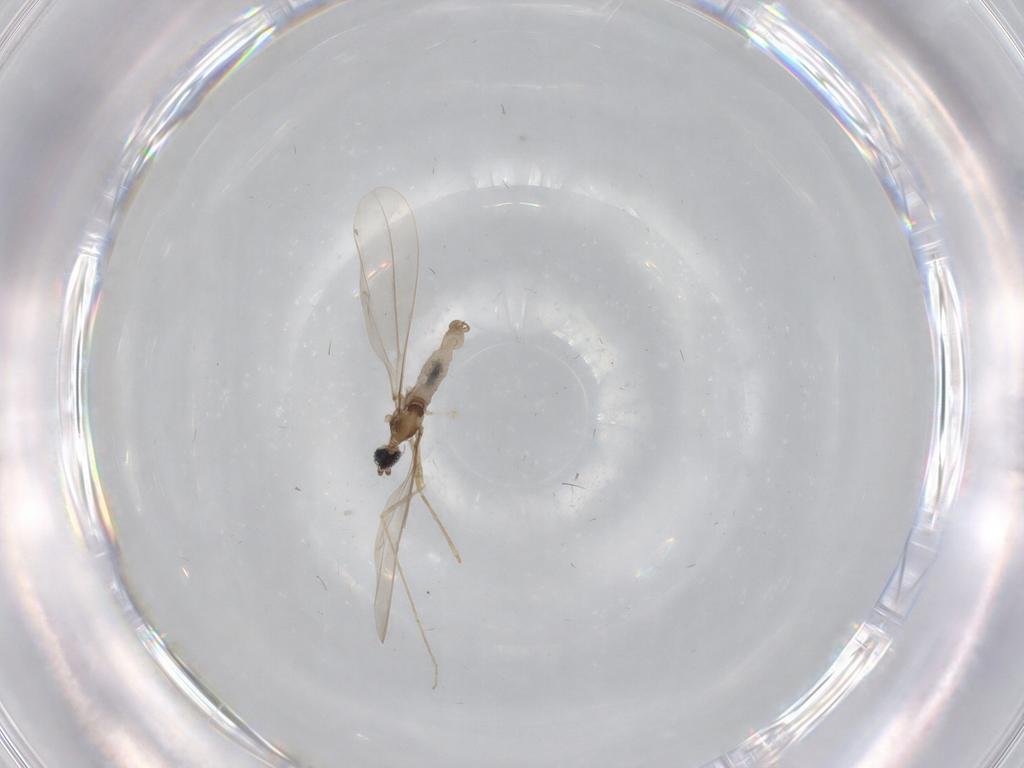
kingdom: Animalia
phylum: Arthropoda
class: Insecta
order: Diptera
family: Cecidomyiidae
